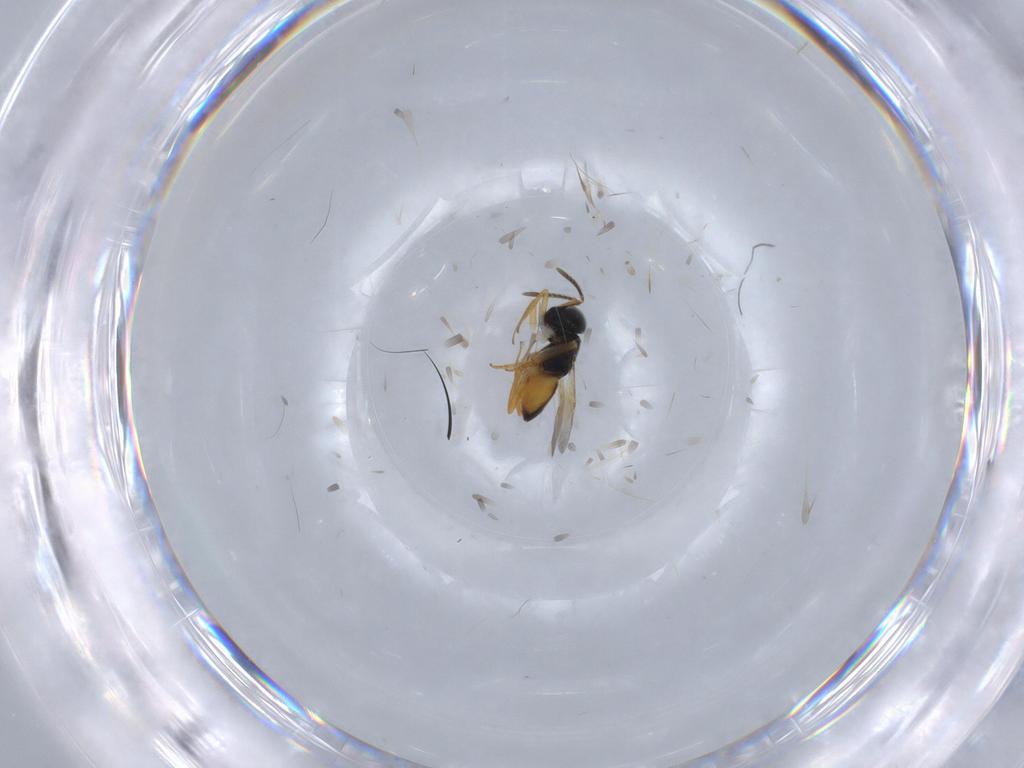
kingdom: Animalia
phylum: Arthropoda
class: Insecta
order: Hymenoptera
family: Encyrtidae
